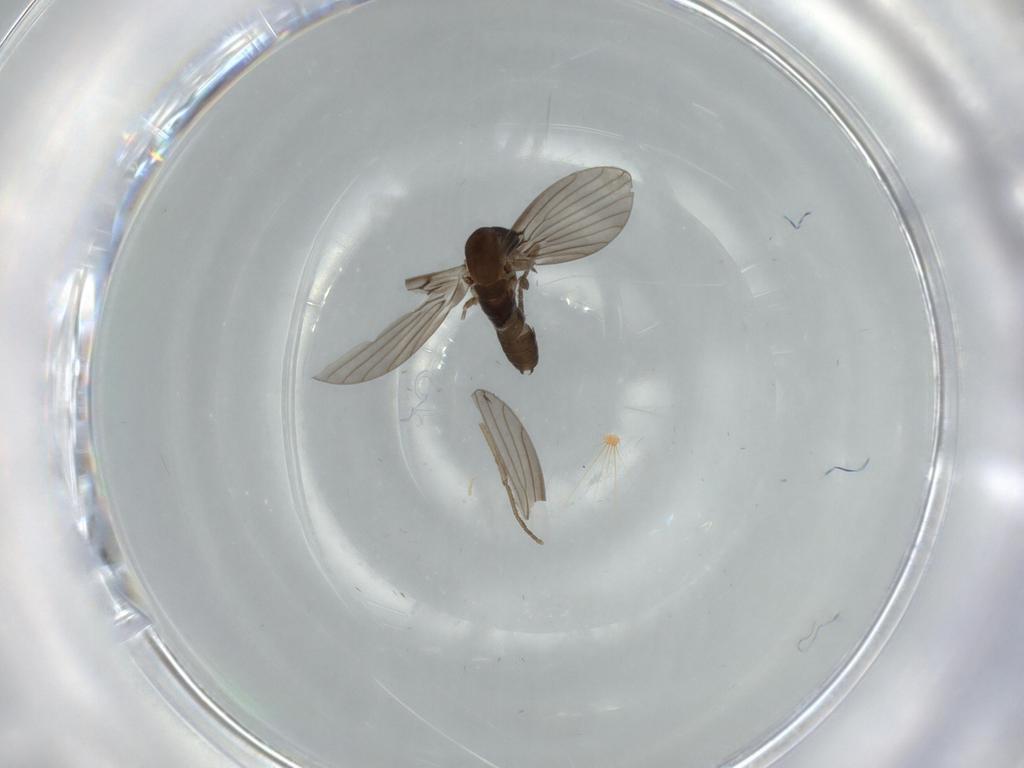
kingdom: Animalia
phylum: Arthropoda
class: Insecta
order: Diptera
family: Psychodidae
